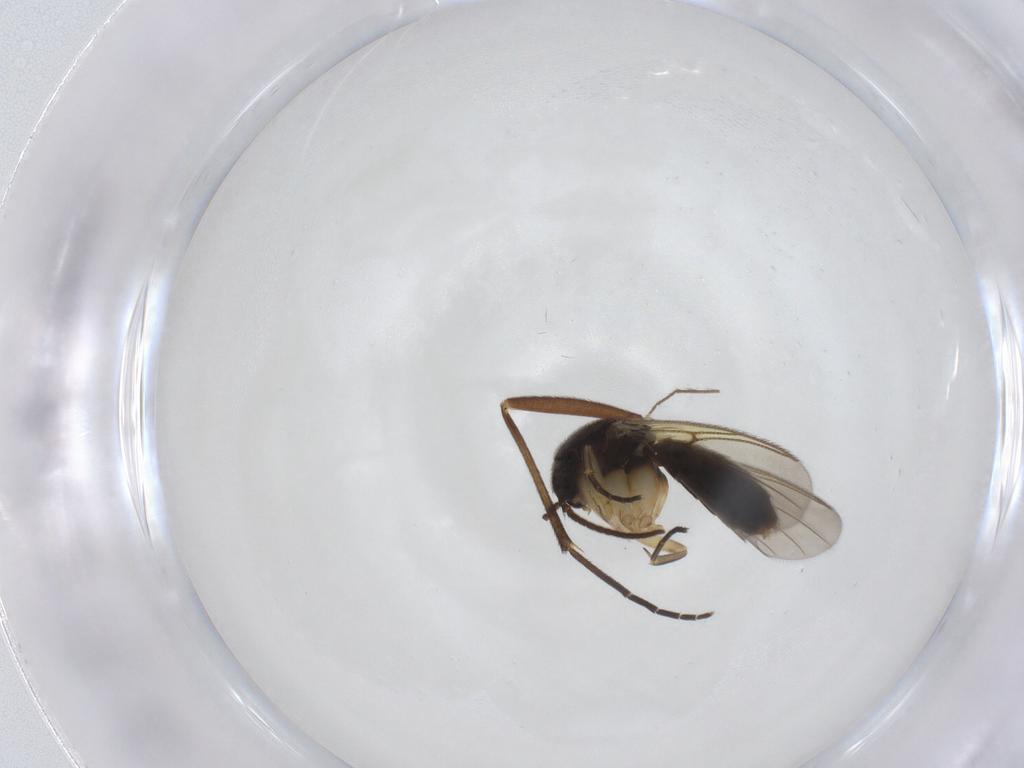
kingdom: Animalia
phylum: Arthropoda
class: Insecta
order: Diptera
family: Sciaridae
